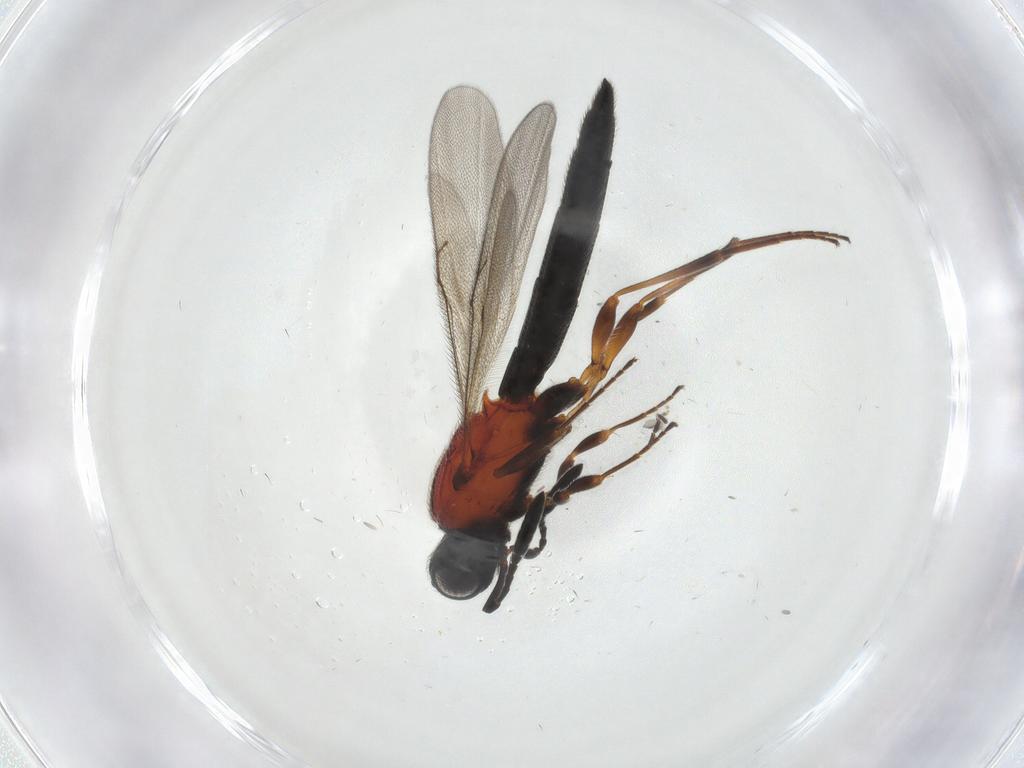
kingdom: Animalia
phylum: Arthropoda
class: Insecta
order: Hymenoptera
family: Scelionidae
